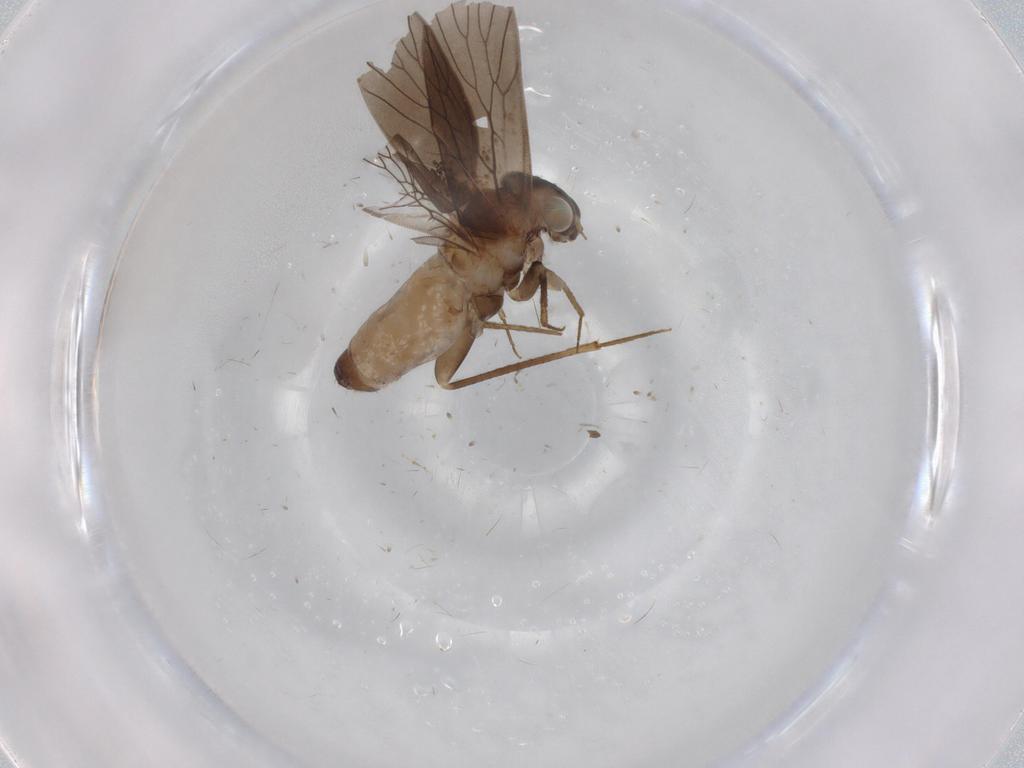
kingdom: Animalia
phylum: Arthropoda
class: Insecta
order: Psocodea
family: Lepidopsocidae
